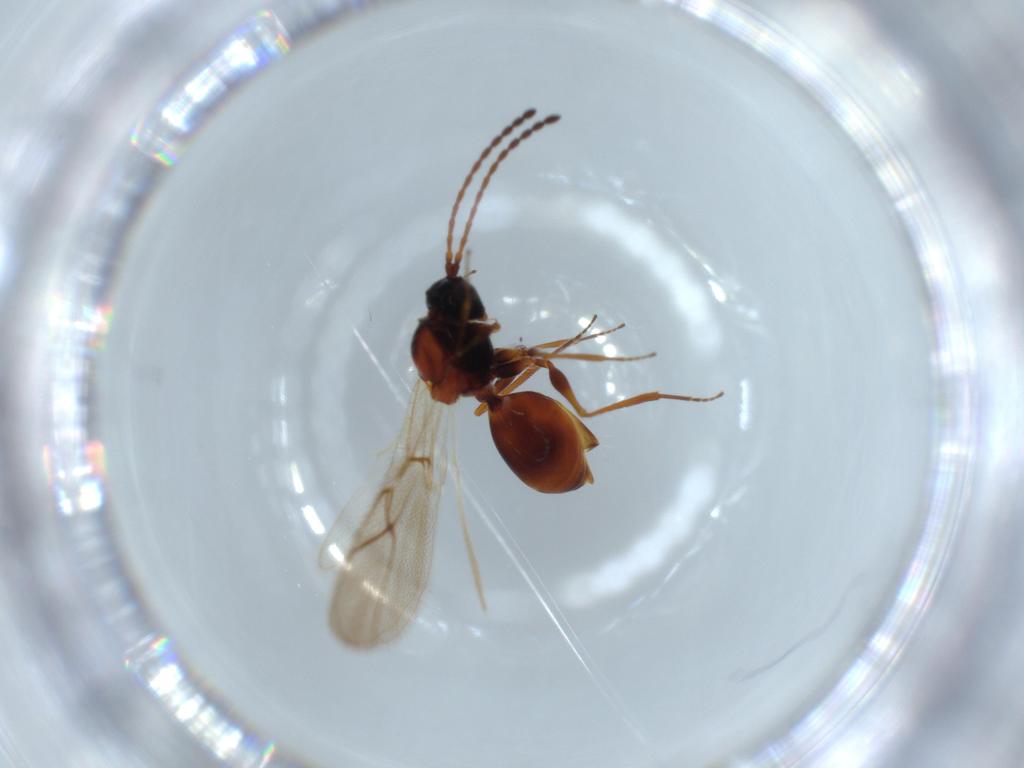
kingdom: Animalia
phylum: Arthropoda
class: Insecta
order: Hymenoptera
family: Figitidae
